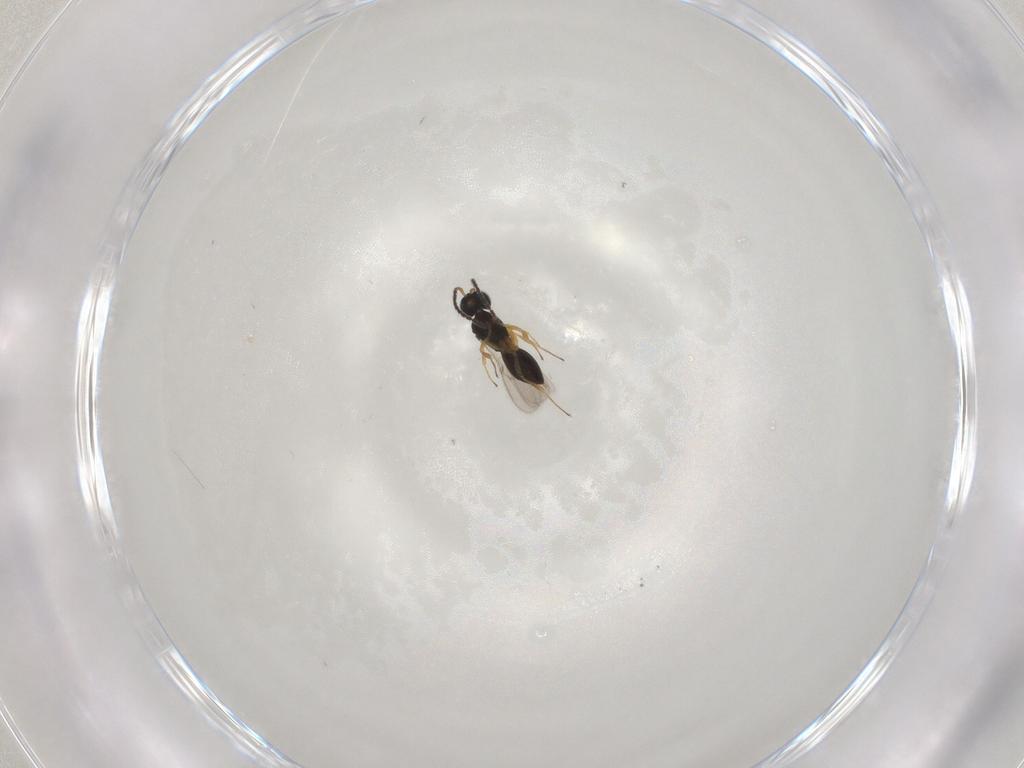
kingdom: Animalia
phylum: Arthropoda
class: Insecta
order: Hymenoptera
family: Scelionidae
